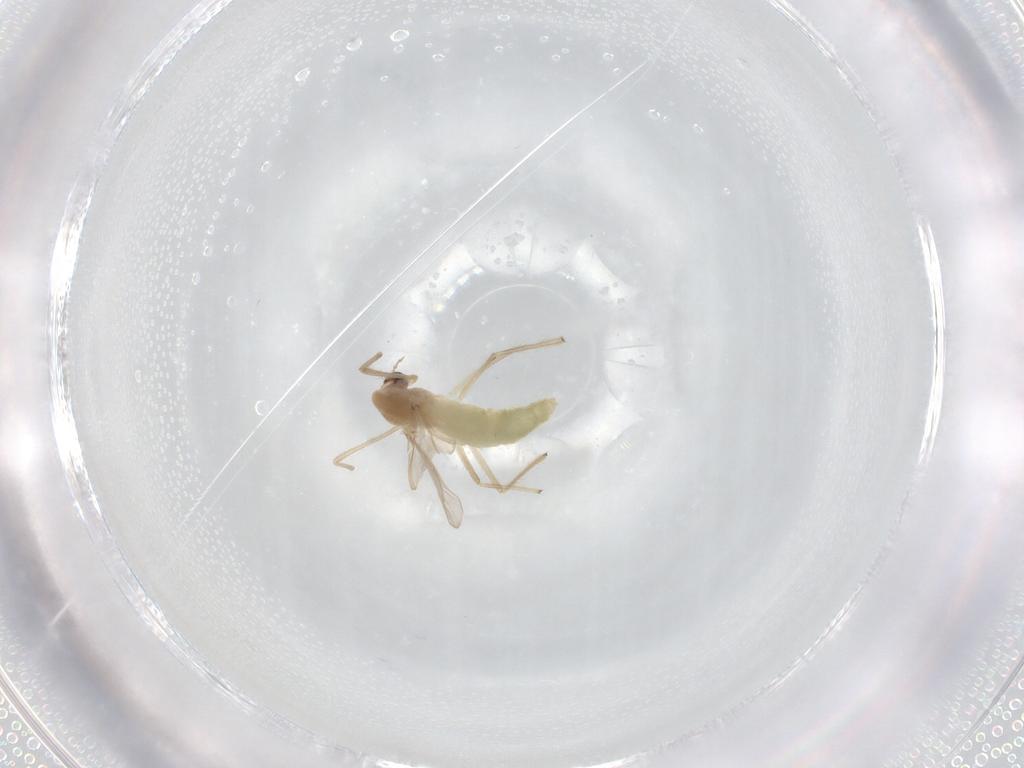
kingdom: Animalia
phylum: Arthropoda
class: Insecta
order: Diptera
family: Chironomidae
